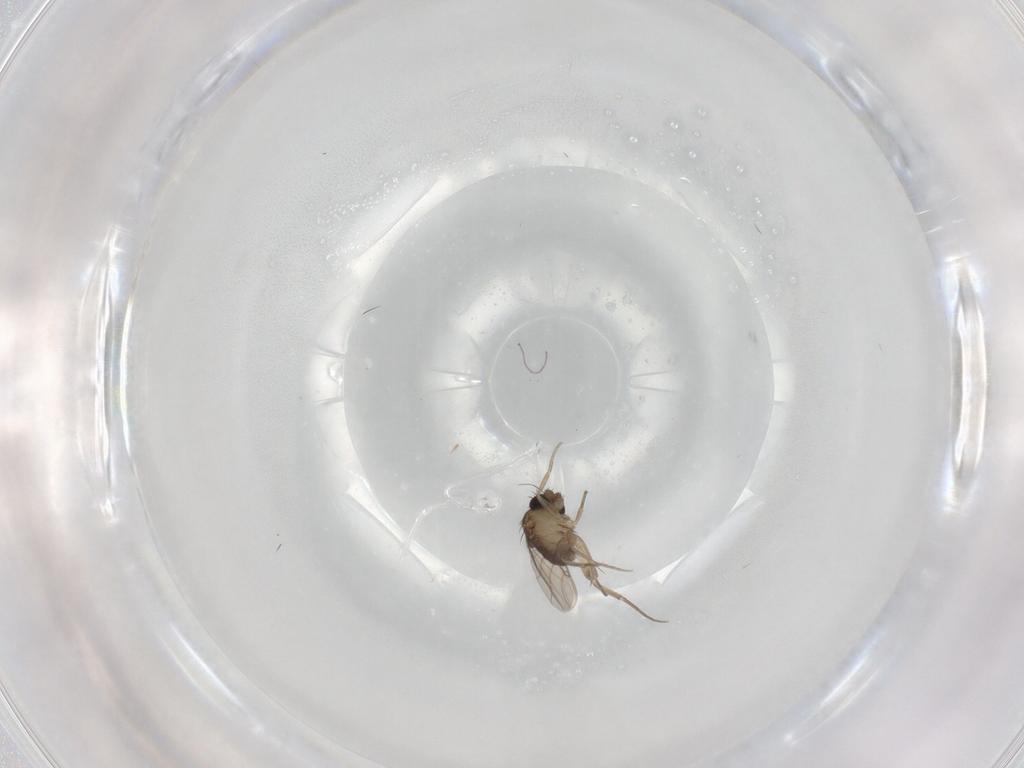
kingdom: Animalia
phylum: Arthropoda
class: Insecta
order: Diptera
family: Phoridae
